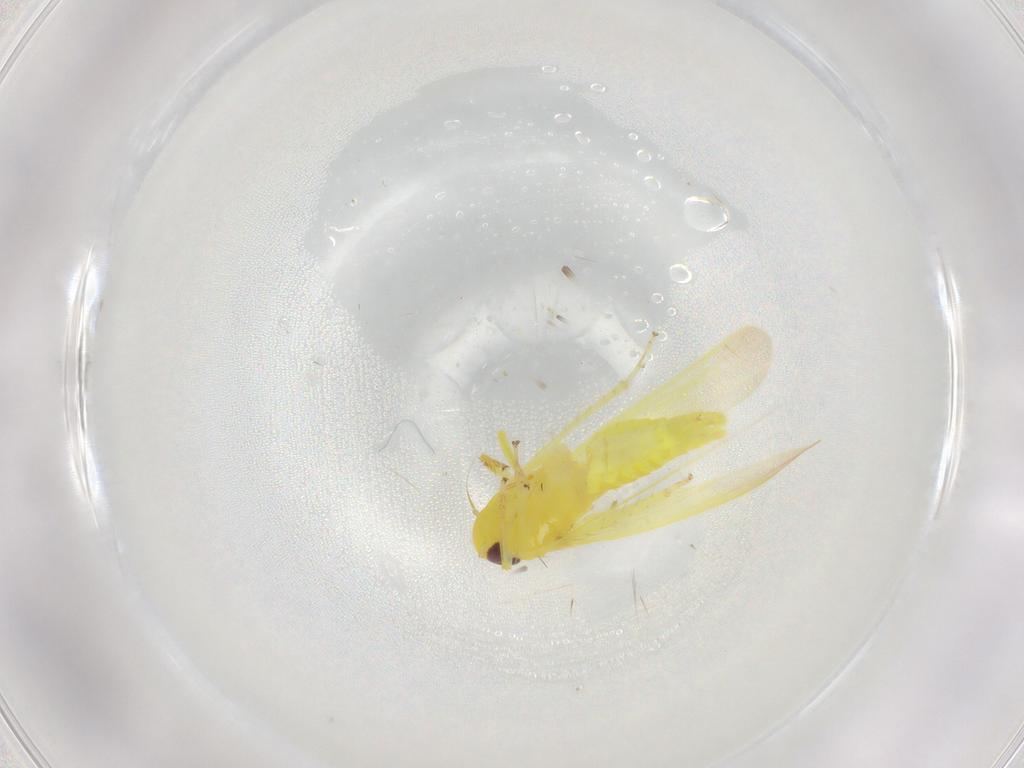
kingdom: Animalia
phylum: Arthropoda
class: Insecta
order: Hemiptera
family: Cicadellidae
